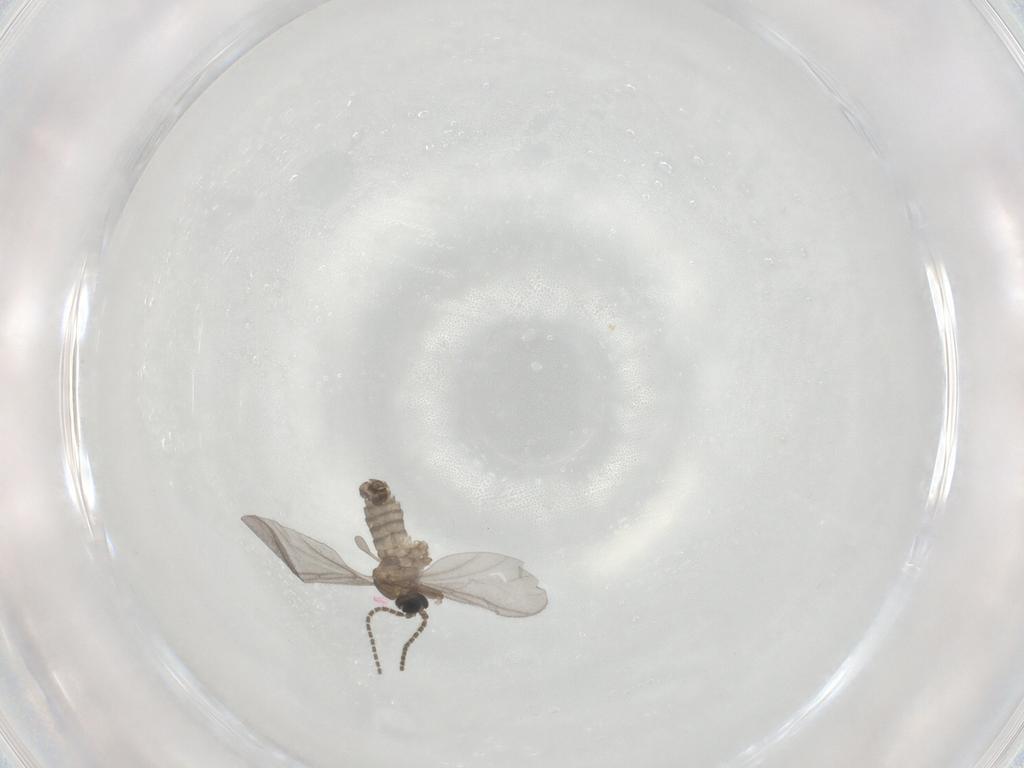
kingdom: Animalia
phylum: Arthropoda
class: Insecta
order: Diptera
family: Sciaridae
